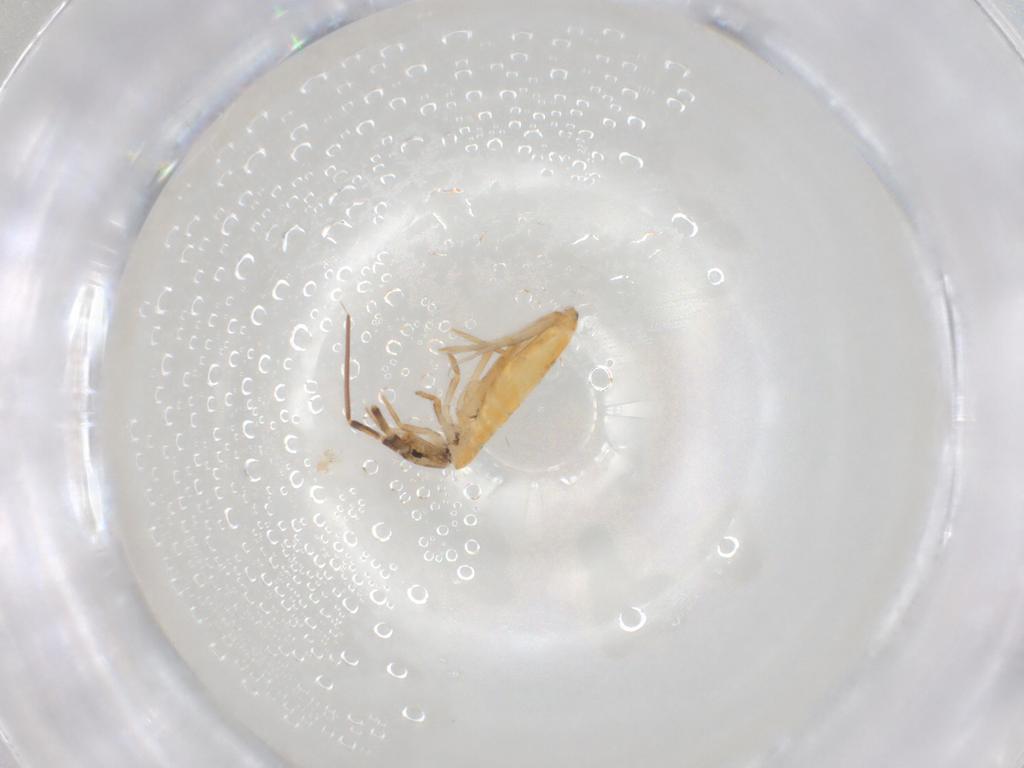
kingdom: Animalia
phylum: Arthropoda
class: Collembola
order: Entomobryomorpha
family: Entomobryidae
